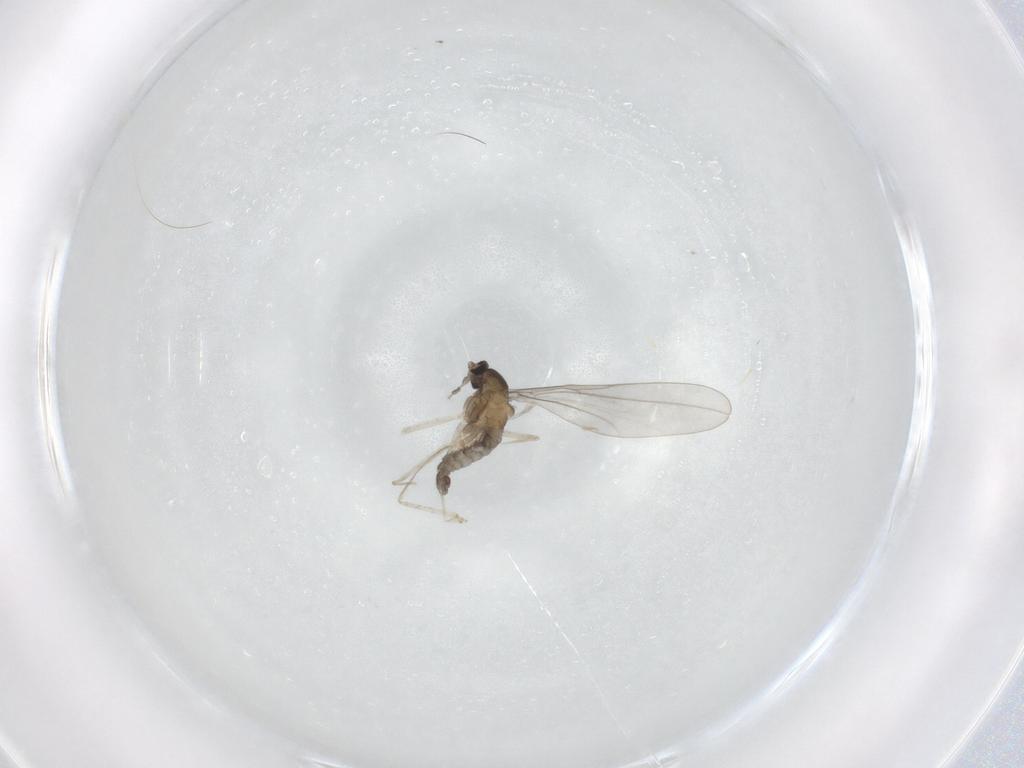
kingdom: Animalia
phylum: Arthropoda
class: Insecta
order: Diptera
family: Cecidomyiidae
